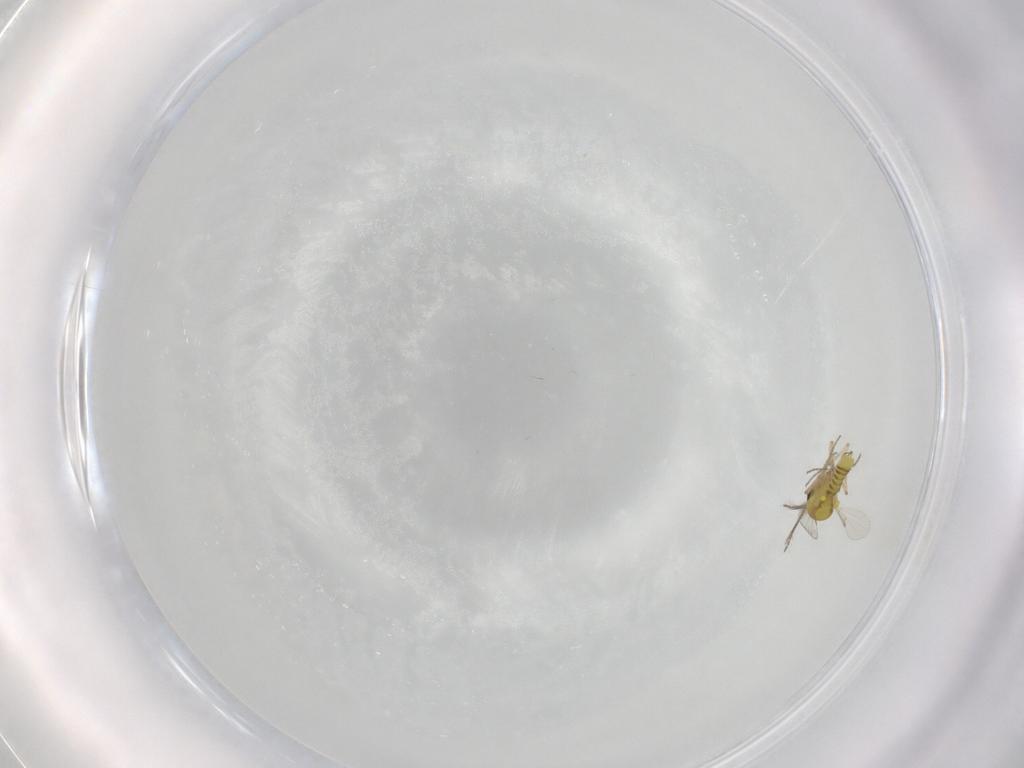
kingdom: Animalia
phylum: Arthropoda
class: Insecta
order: Diptera
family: Ceratopogonidae
